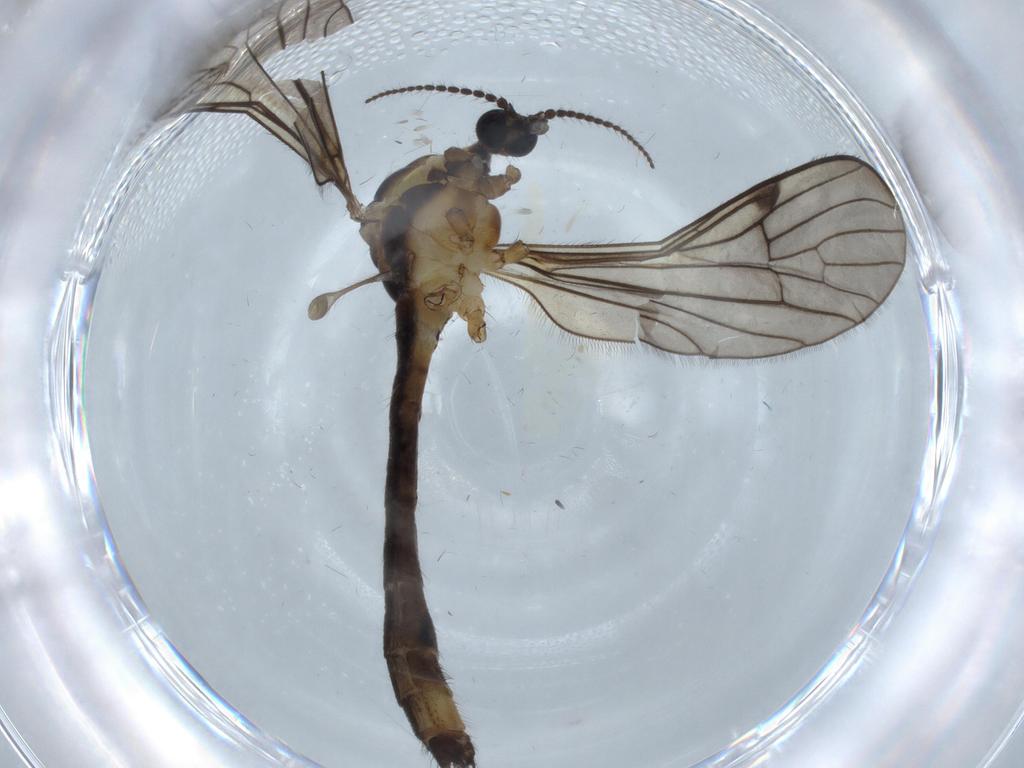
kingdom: Animalia
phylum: Arthropoda
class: Insecta
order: Diptera
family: Limoniidae
